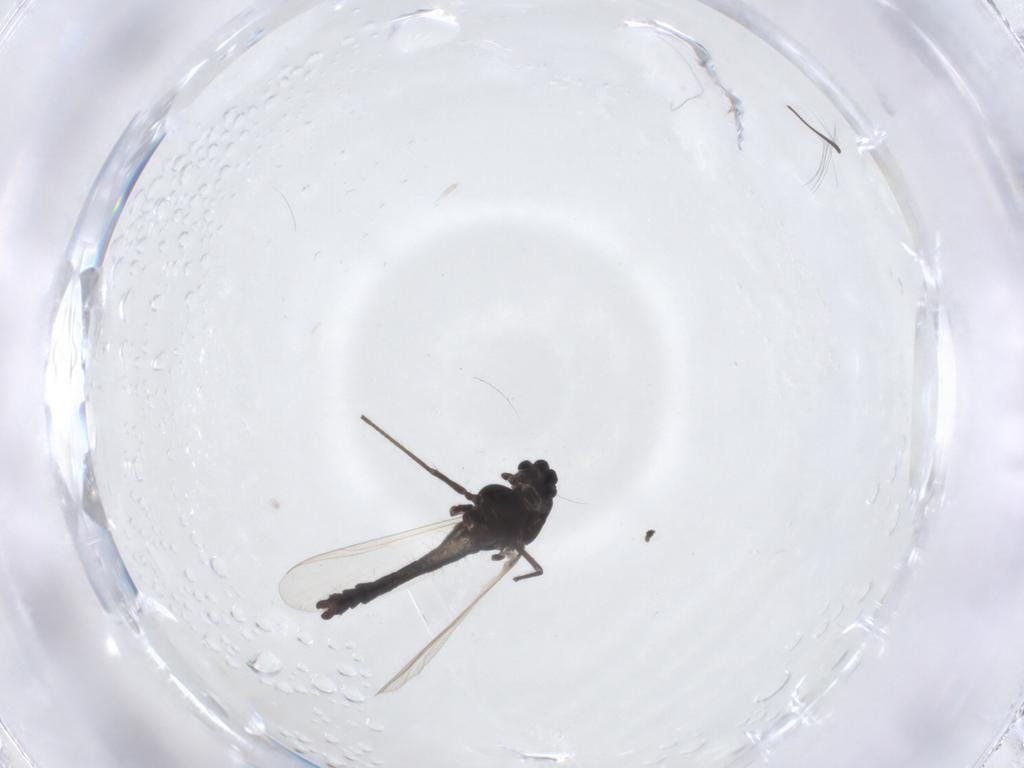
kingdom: Animalia
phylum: Arthropoda
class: Insecta
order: Diptera
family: Chironomidae
